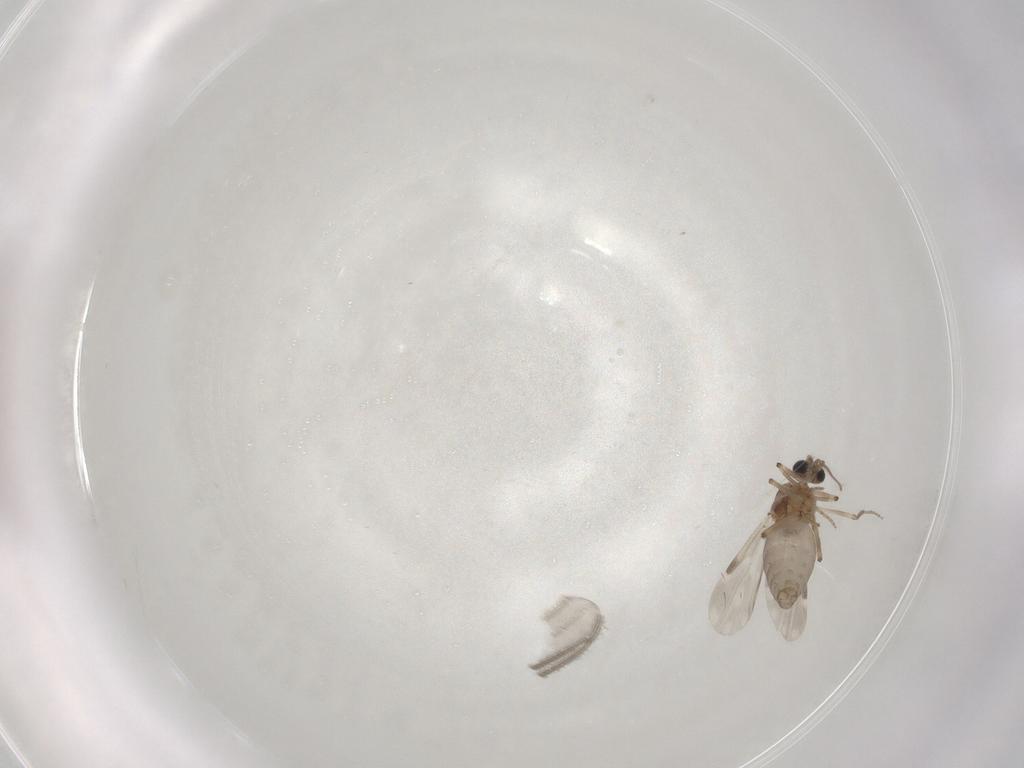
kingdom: Animalia
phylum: Arthropoda
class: Insecta
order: Diptera
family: Ceratopogonidae
